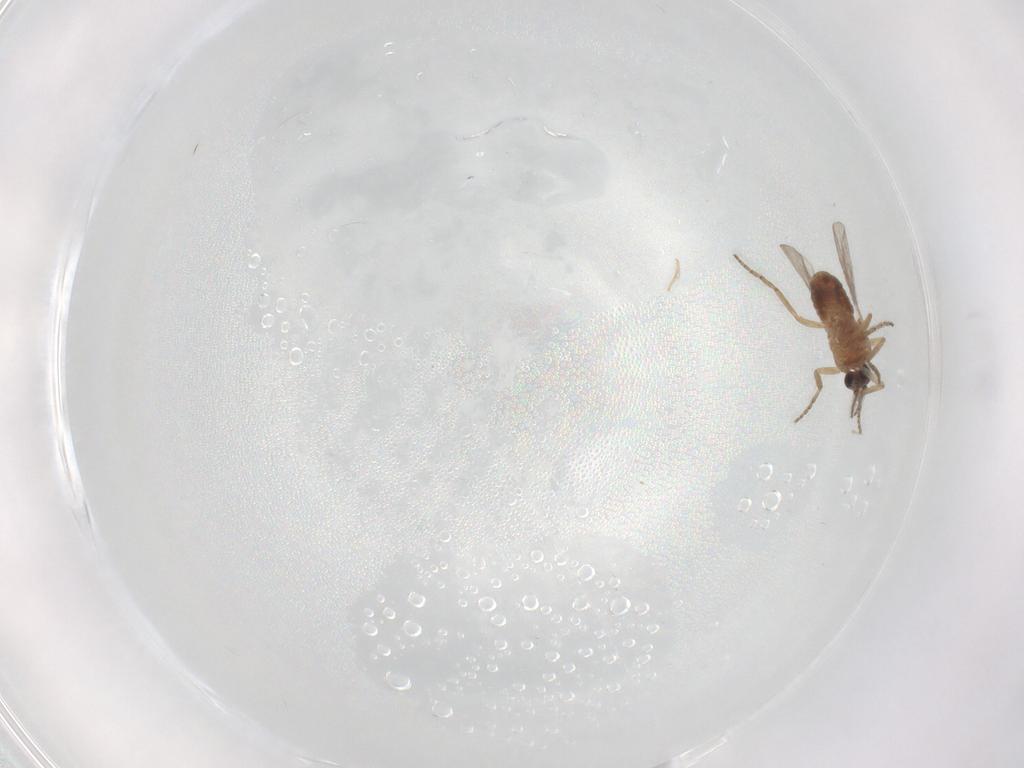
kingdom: Animalia
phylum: Arthropoda
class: Insecta
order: Diptera
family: Ceratopogonidae
